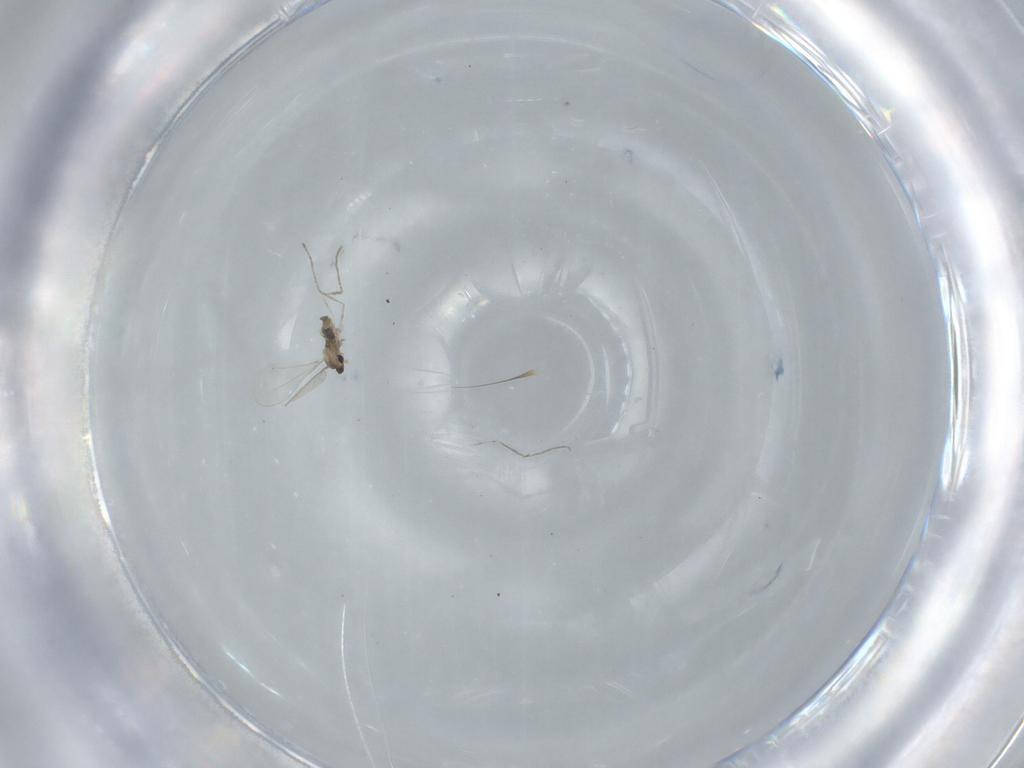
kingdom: Animalia
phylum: Arthropoda
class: Insecta
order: Diptera
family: Cecidomyiidae
